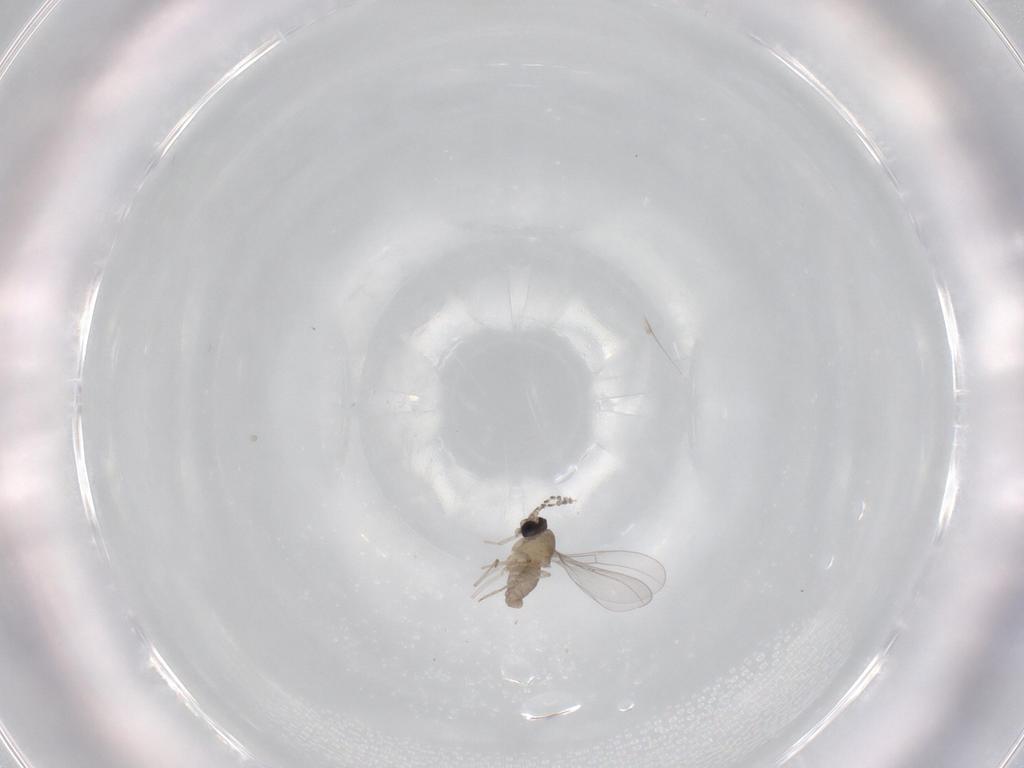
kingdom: Animalia
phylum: Arthropoda
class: Insecta
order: Diptera
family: Cecidomyiidae
